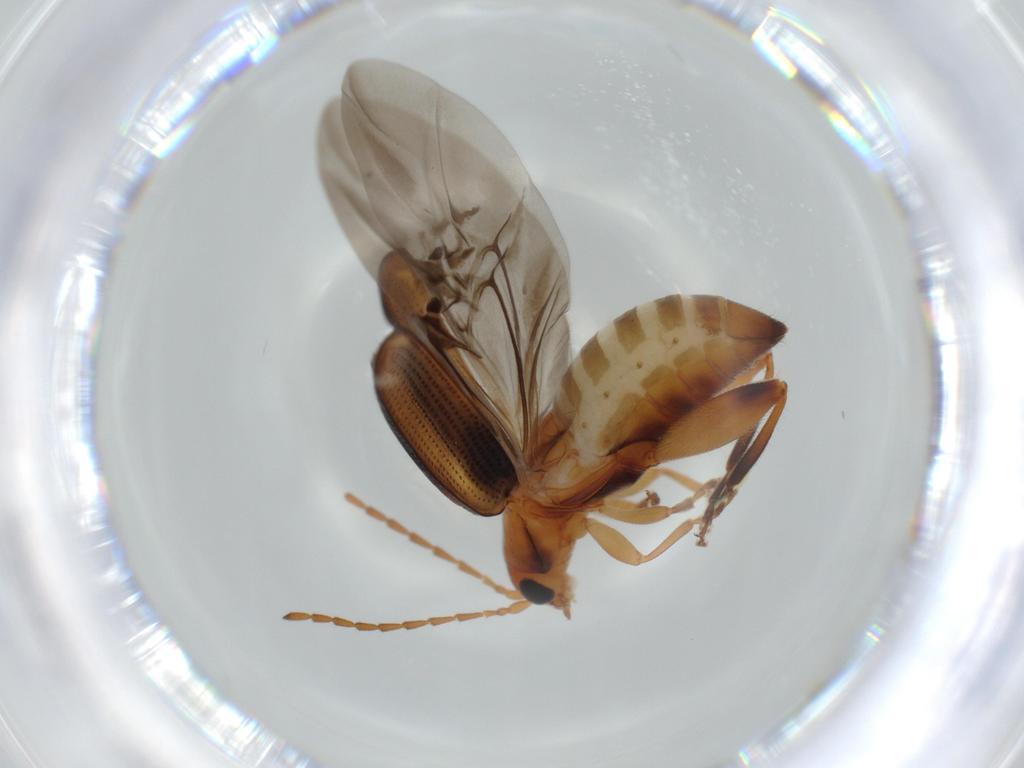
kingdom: Animalia
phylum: Arthropoda
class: Insecta
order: Coleoptera
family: Chrysomelidae
